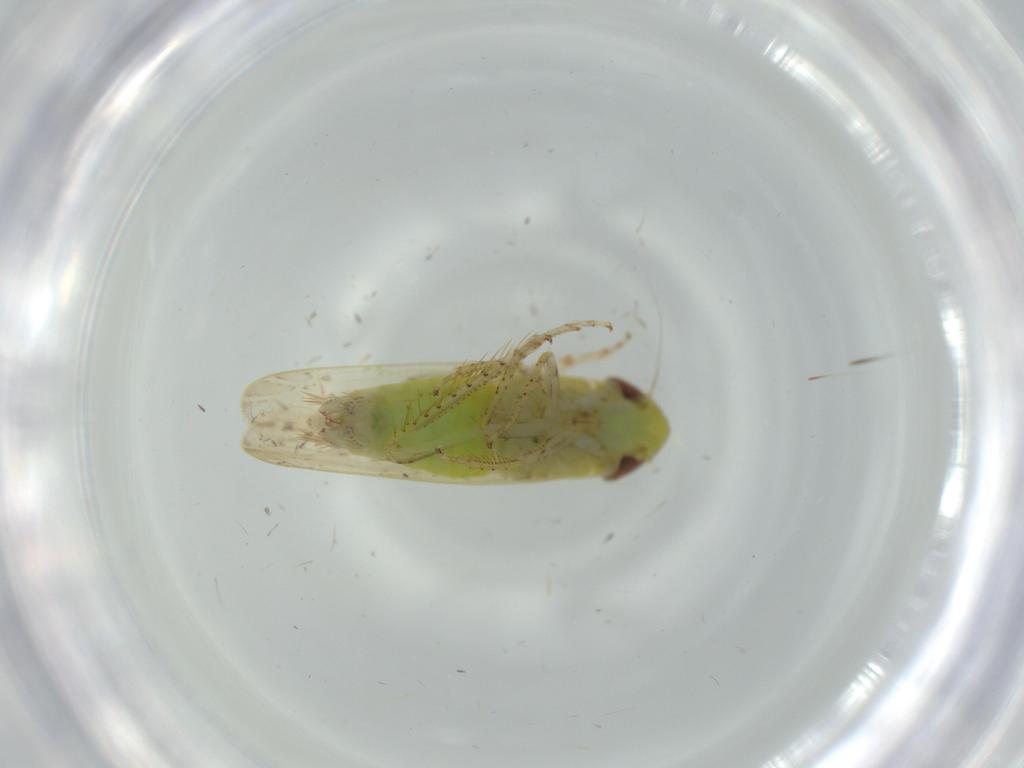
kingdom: Animalia
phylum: Arthropoda
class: Insecta
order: Hemiptera
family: Cicadellidae
